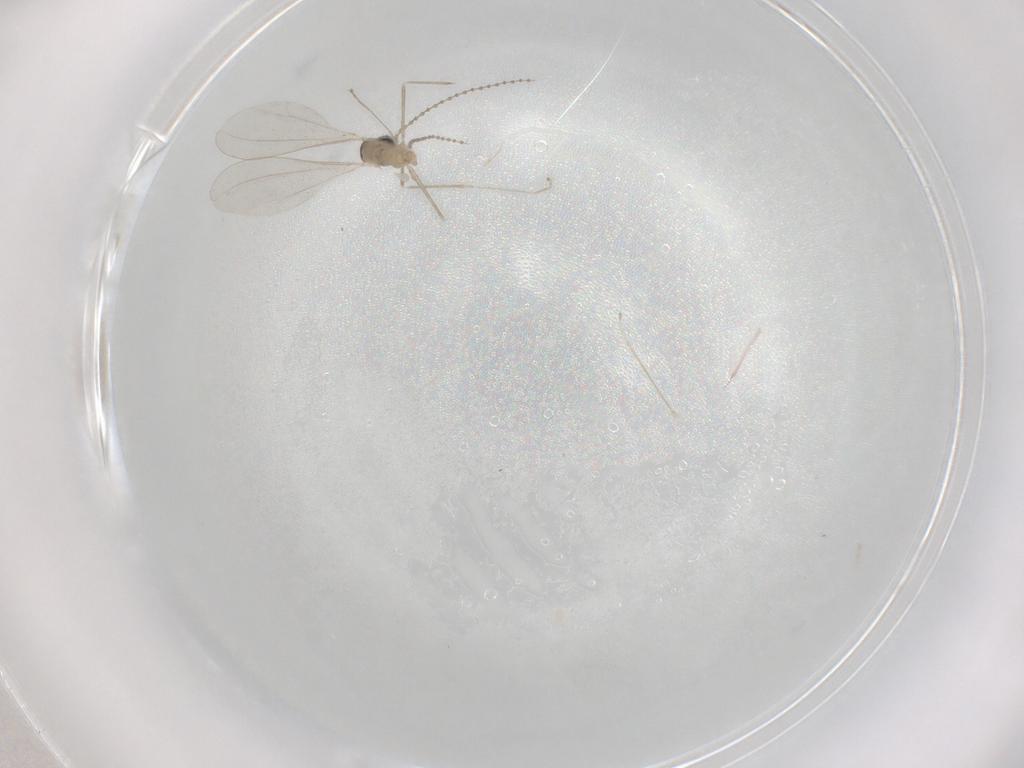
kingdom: Animalia
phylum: Arthropoda
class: Insecta
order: Diptera
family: Cecidomyiidae
